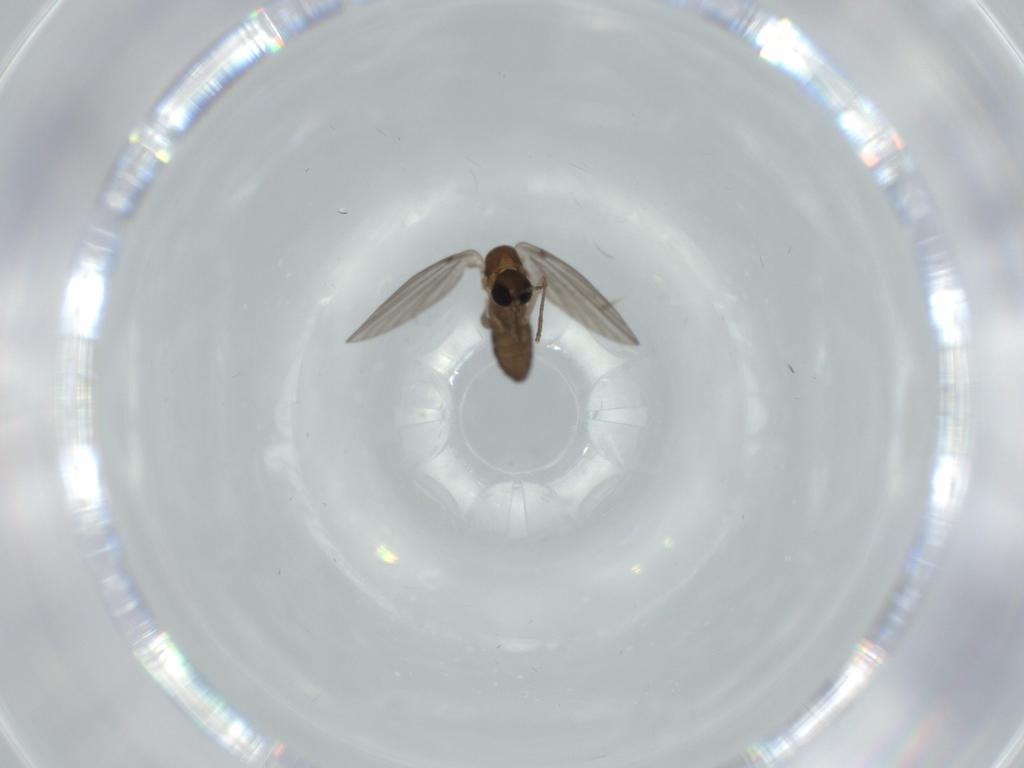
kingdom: Animalia
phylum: Arthropoda
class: Insecta
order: Diptera
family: Psychodidae
